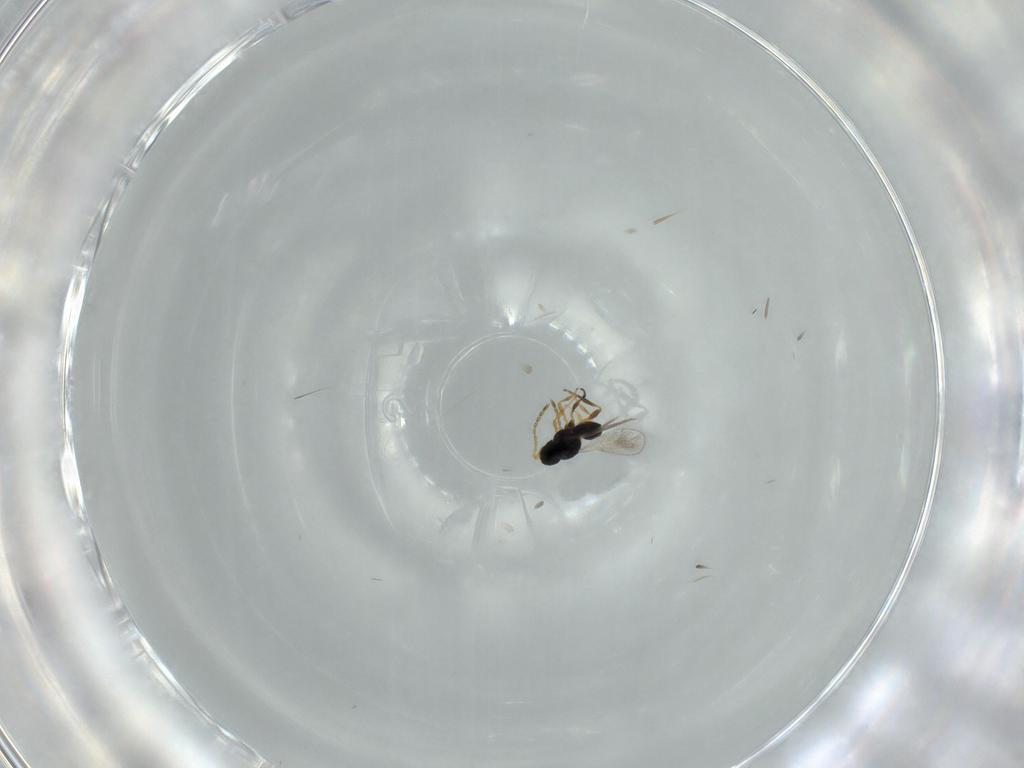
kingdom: Animalia
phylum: Arthropoda
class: Insecta
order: Hymenoptera
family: Platygastridae
